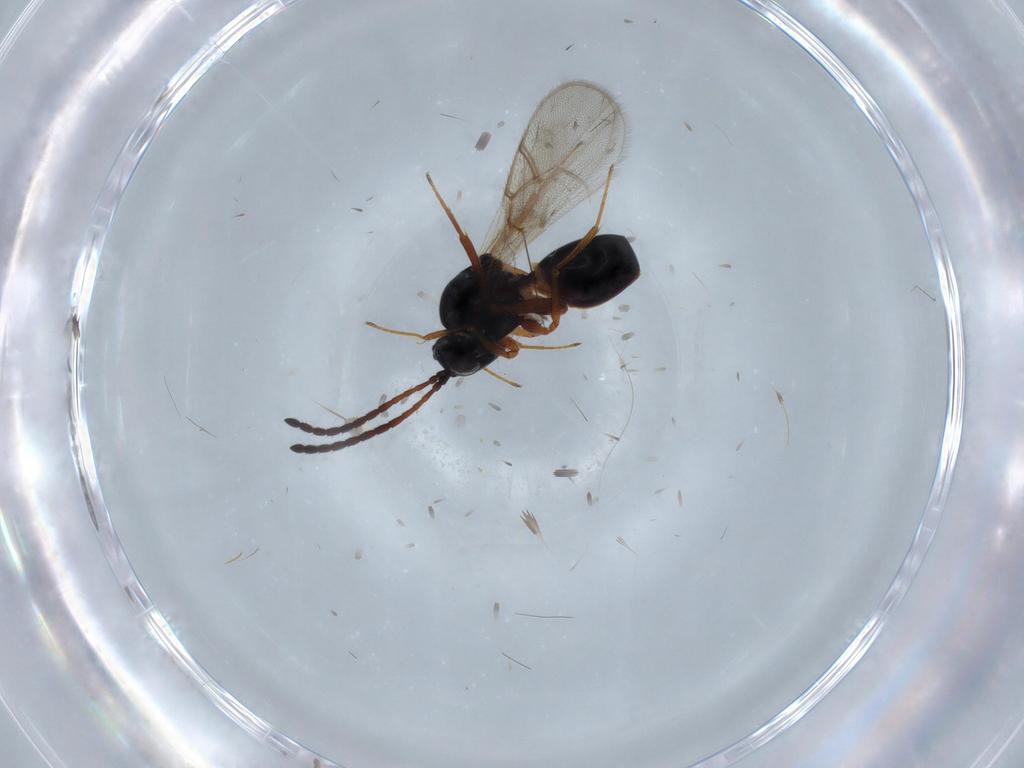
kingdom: Animalia
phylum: Arthropoda
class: Insecta
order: Hymenoptera
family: Figitidae
